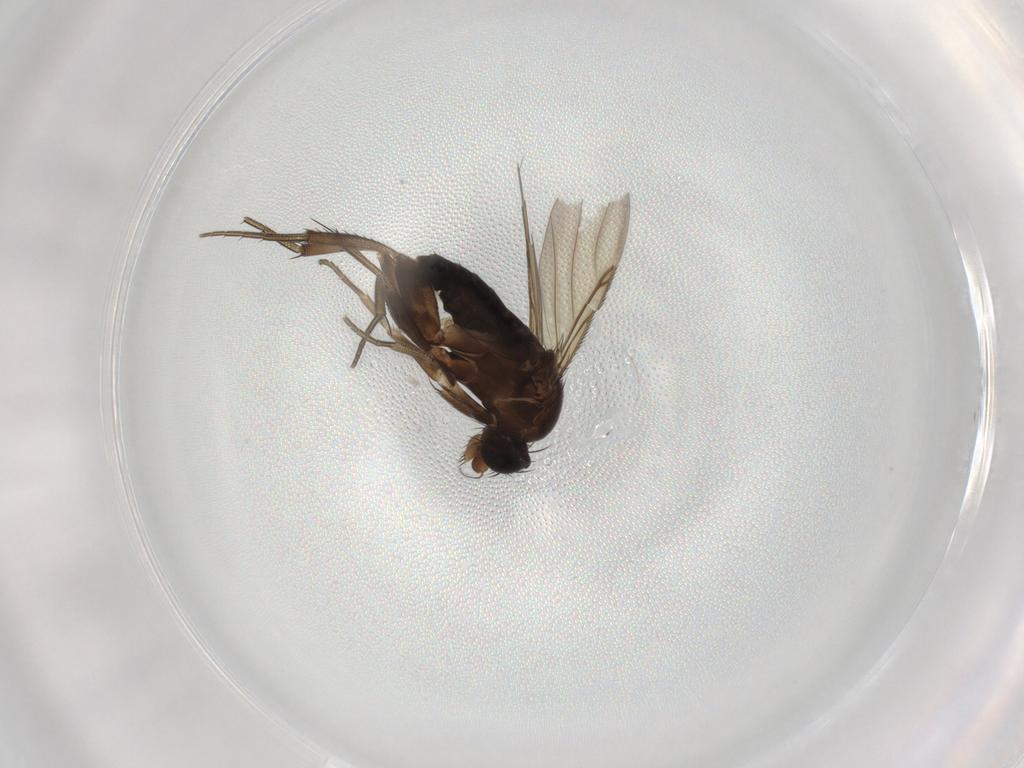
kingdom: Animalia
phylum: Arthropoda
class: Insecta
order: Diptera
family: Phoridae
